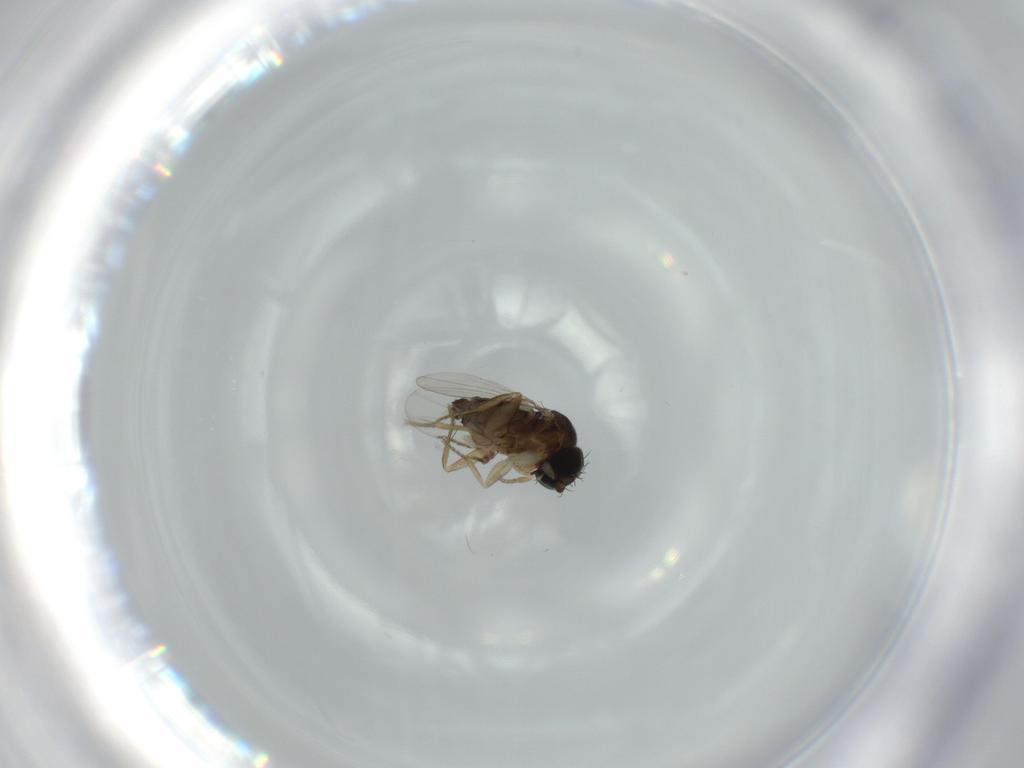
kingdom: Animalia
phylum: Arthropoda
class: Insecta
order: Diptera
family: Phoridae
